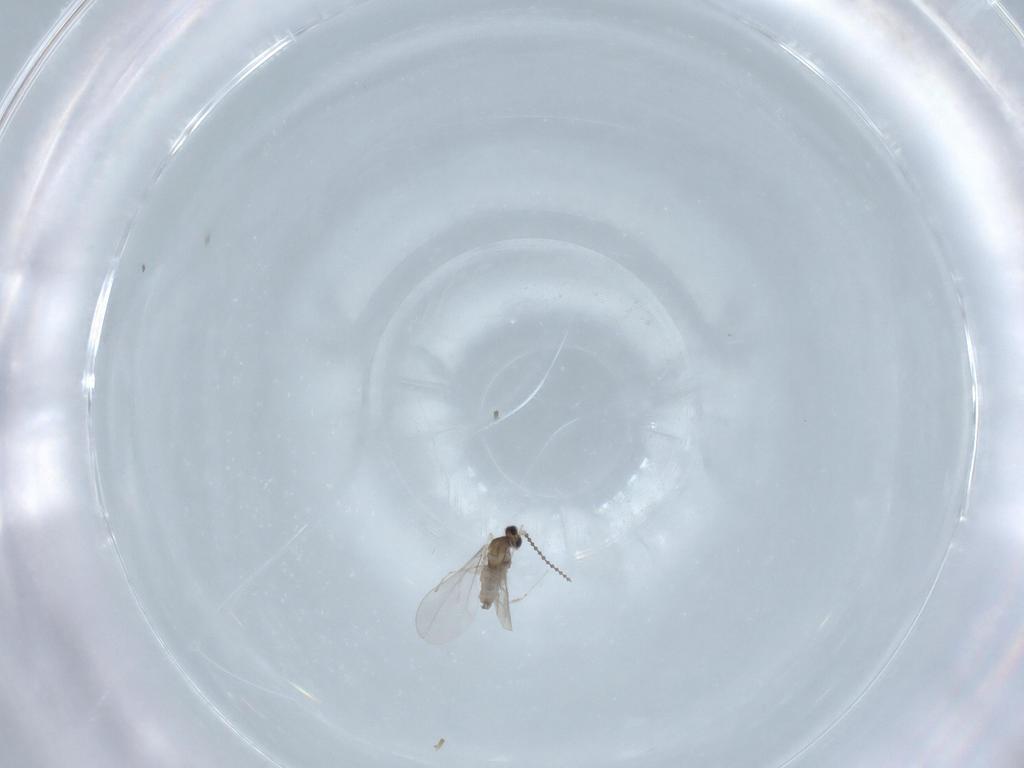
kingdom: Animalia
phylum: Arthropoda
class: Insecta
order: Diptera
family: Cecidomyiidae
